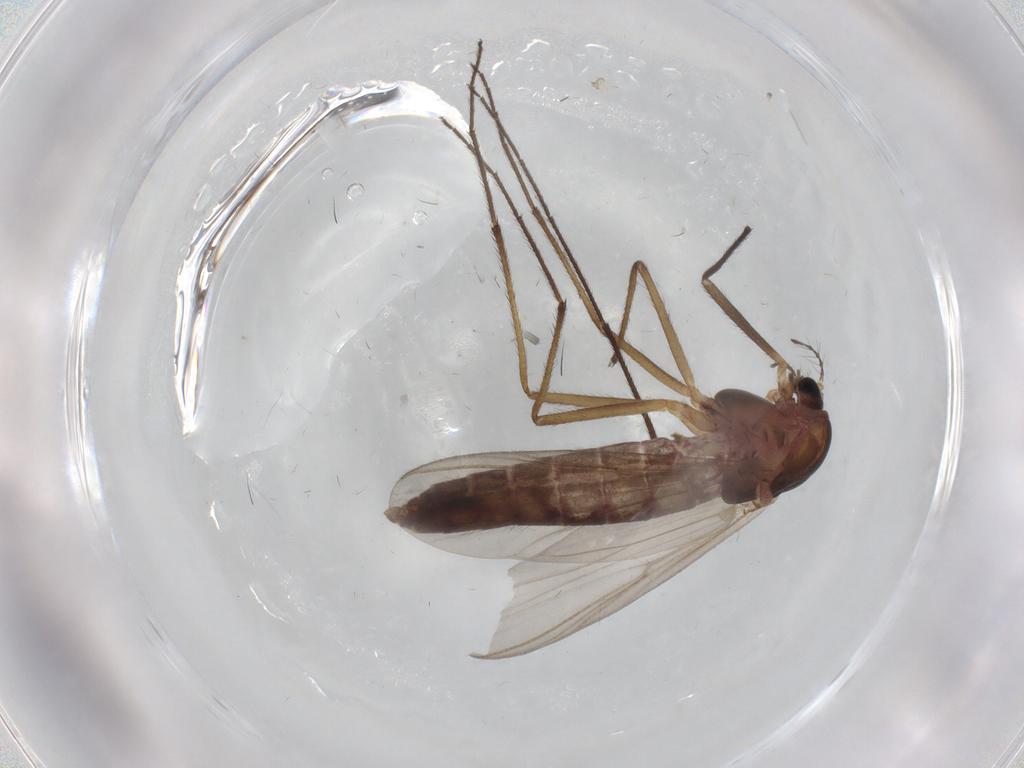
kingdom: Animalia
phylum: Arthropoda
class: Insecta
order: Diptera
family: Chironomidae
